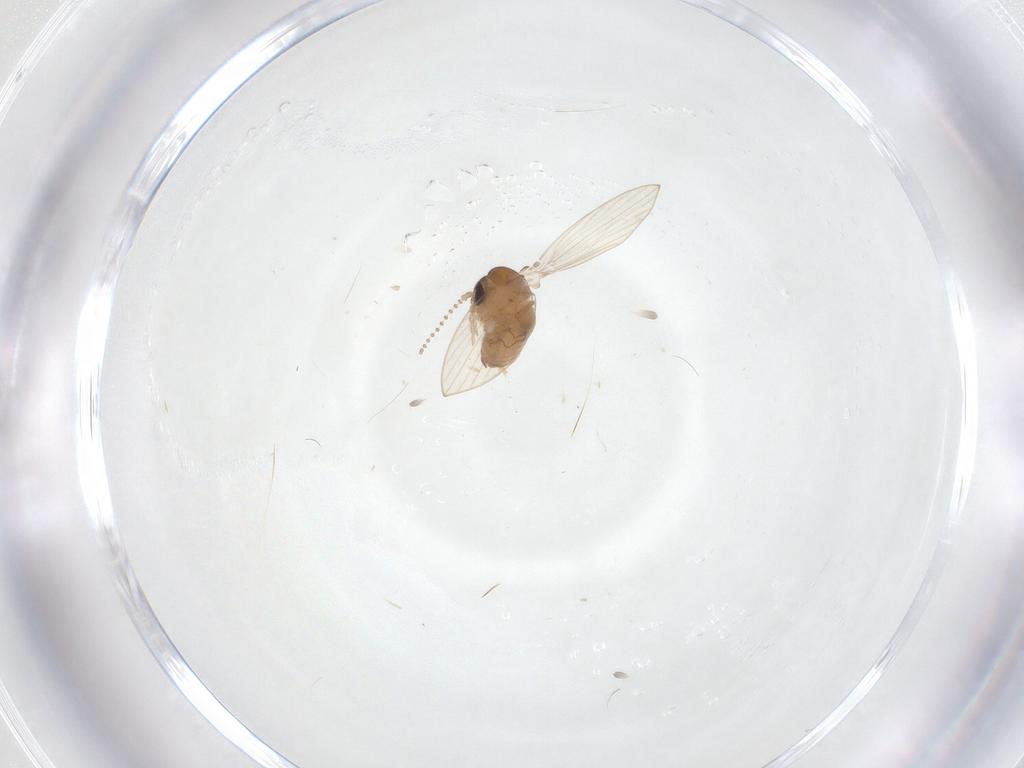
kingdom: Animalia
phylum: Arthropoda
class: Insecta
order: Diptera
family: Psychodidae
